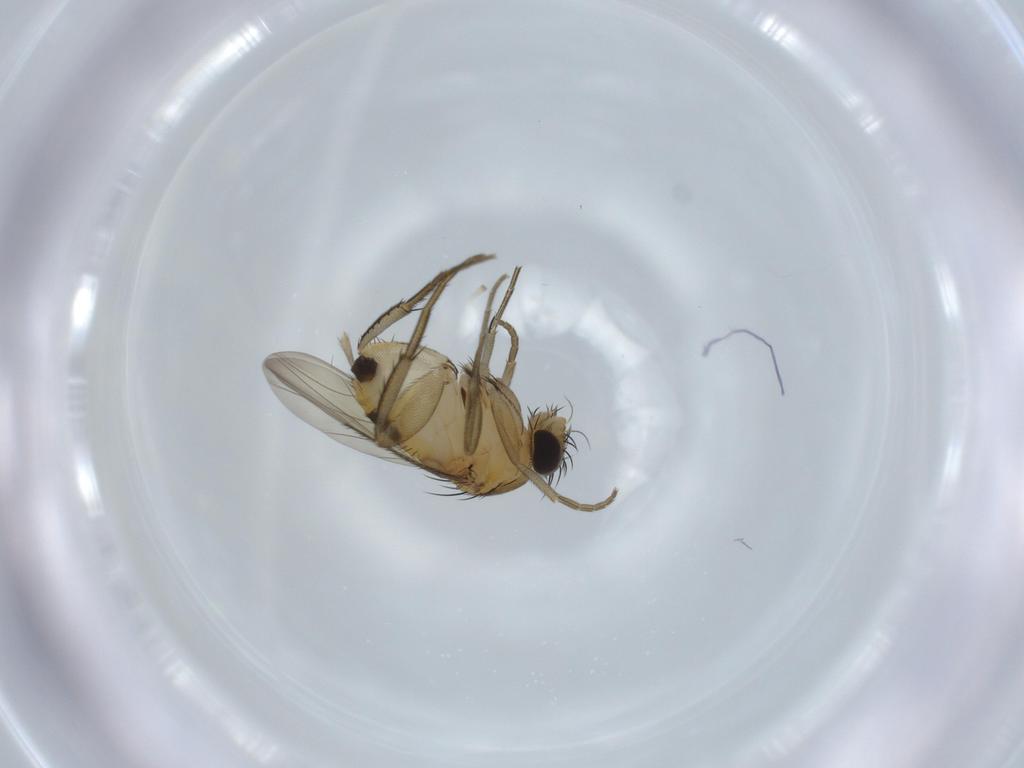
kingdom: Animalia
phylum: Arthropoda
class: Insecta
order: Diptera
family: Phoridae
